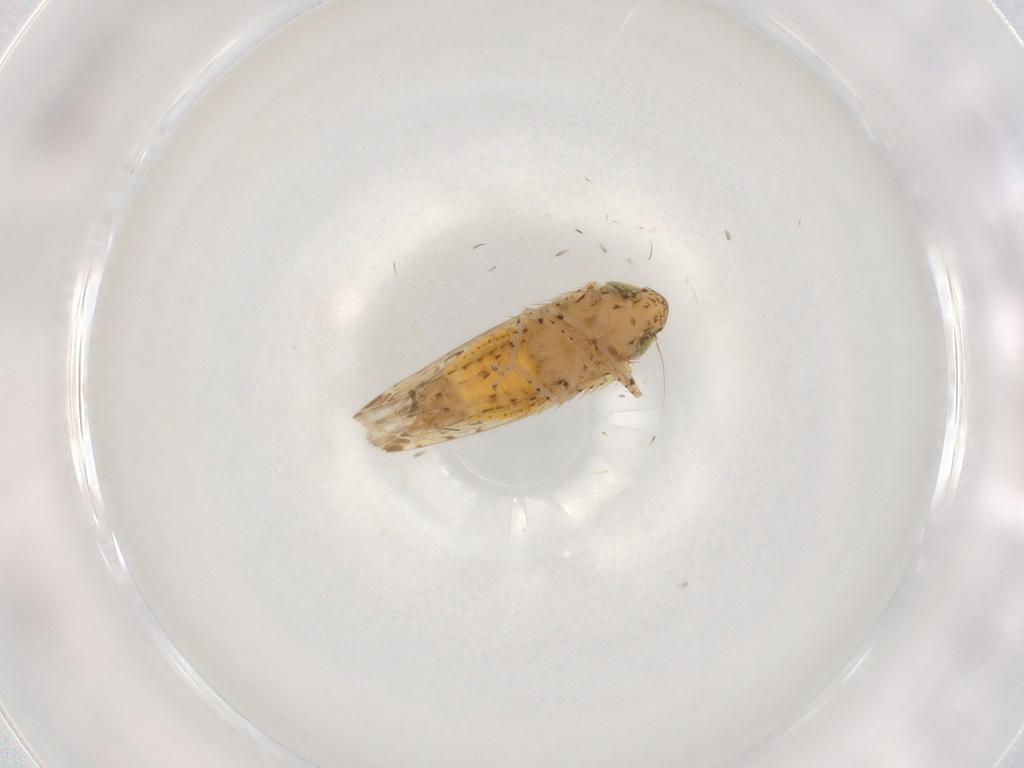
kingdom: Animalia
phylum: Arthropoda
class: Insecta
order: Hemiptera
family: Cicadellidae
